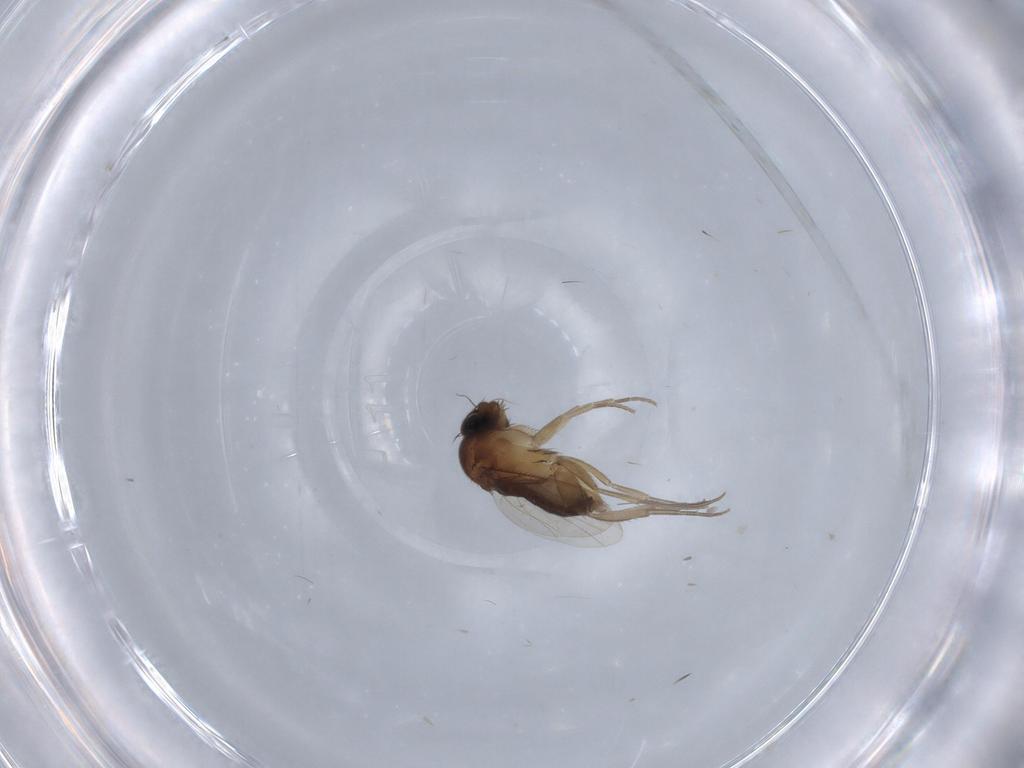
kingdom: Animalia
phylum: Arthropoda
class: Insecta
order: Diptera
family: Phoridae
